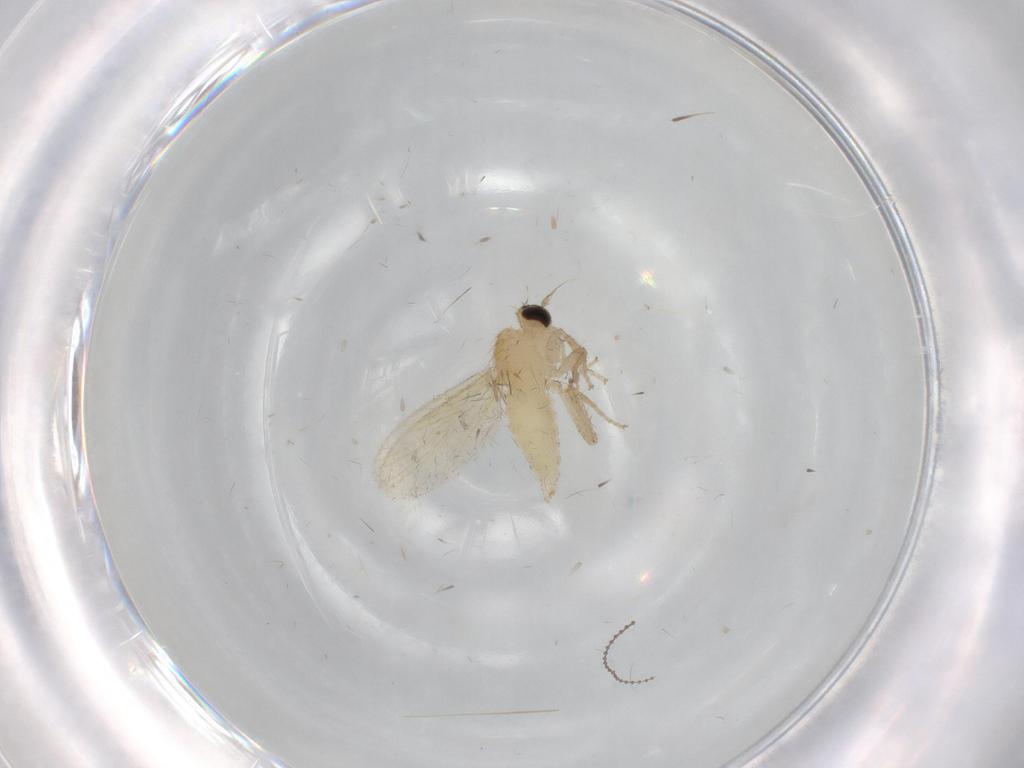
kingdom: Animalia
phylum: Arthropoda
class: Insecta
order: Diptera
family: Hybotidae
